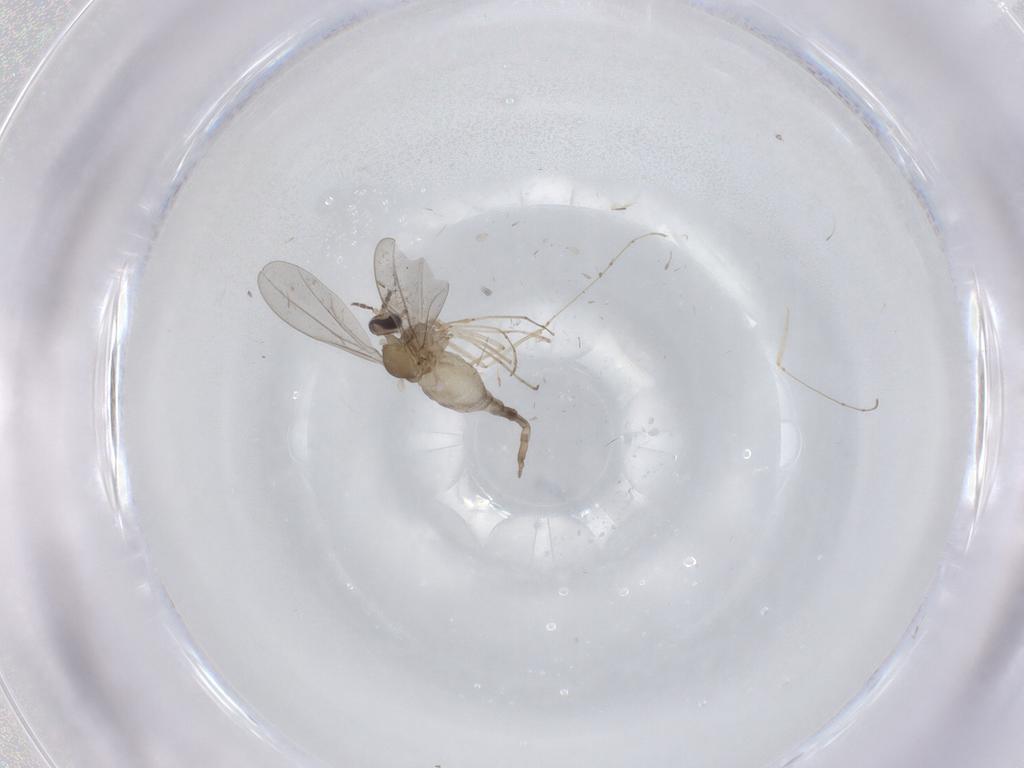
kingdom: Animalia
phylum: Arthropoda
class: Insecta
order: Diptera
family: Cecidomyiidae
